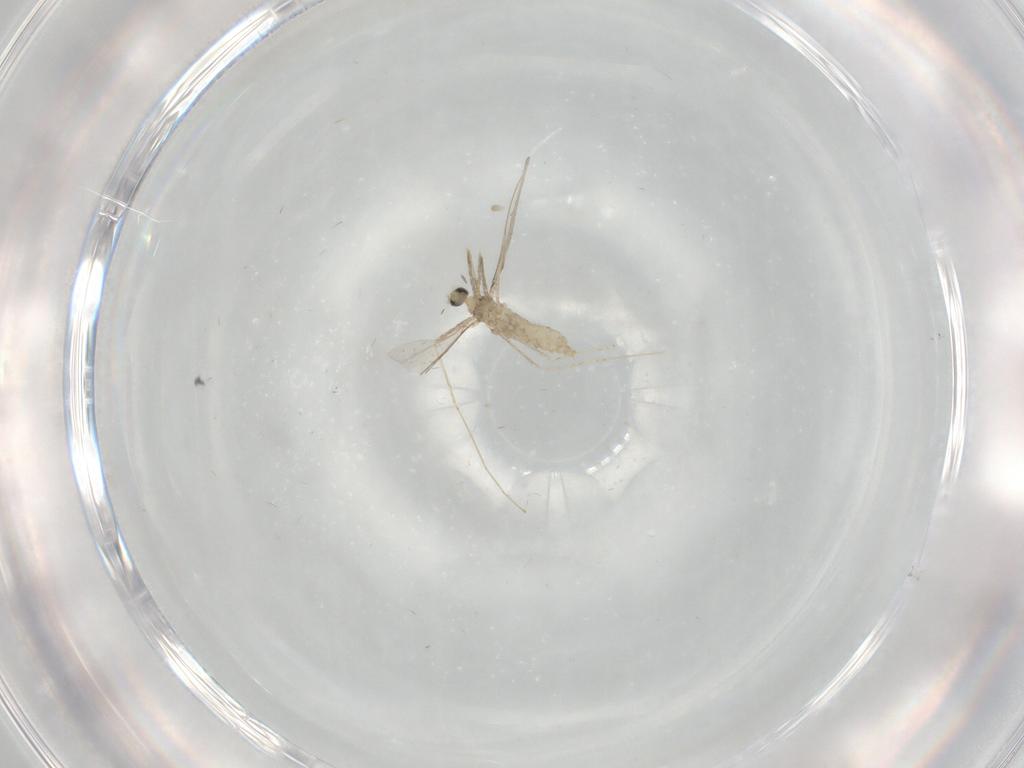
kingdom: Animalia
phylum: Arthropoda
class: Insecta
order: Diptera
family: Cecidomyiidae
